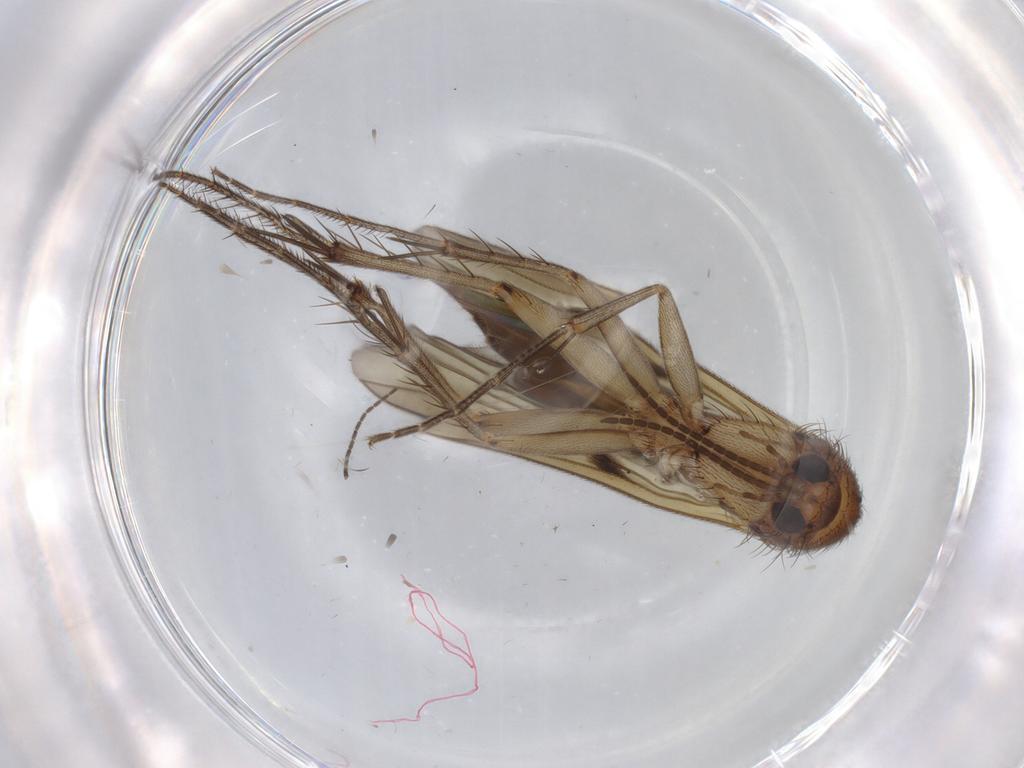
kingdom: Animalia
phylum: Arthropoda
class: Insecta
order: Diptera
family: Mycetophilidae
